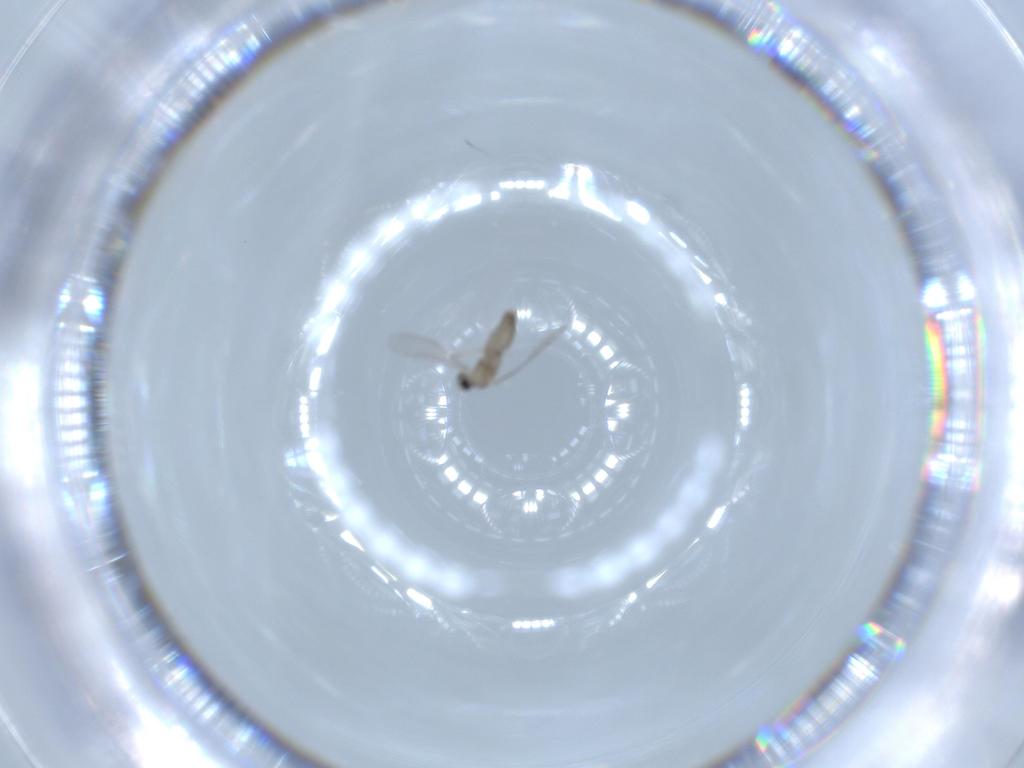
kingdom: Animalia
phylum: Arthropoda
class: Insecta
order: Diptera
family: Cecidomyiidae
